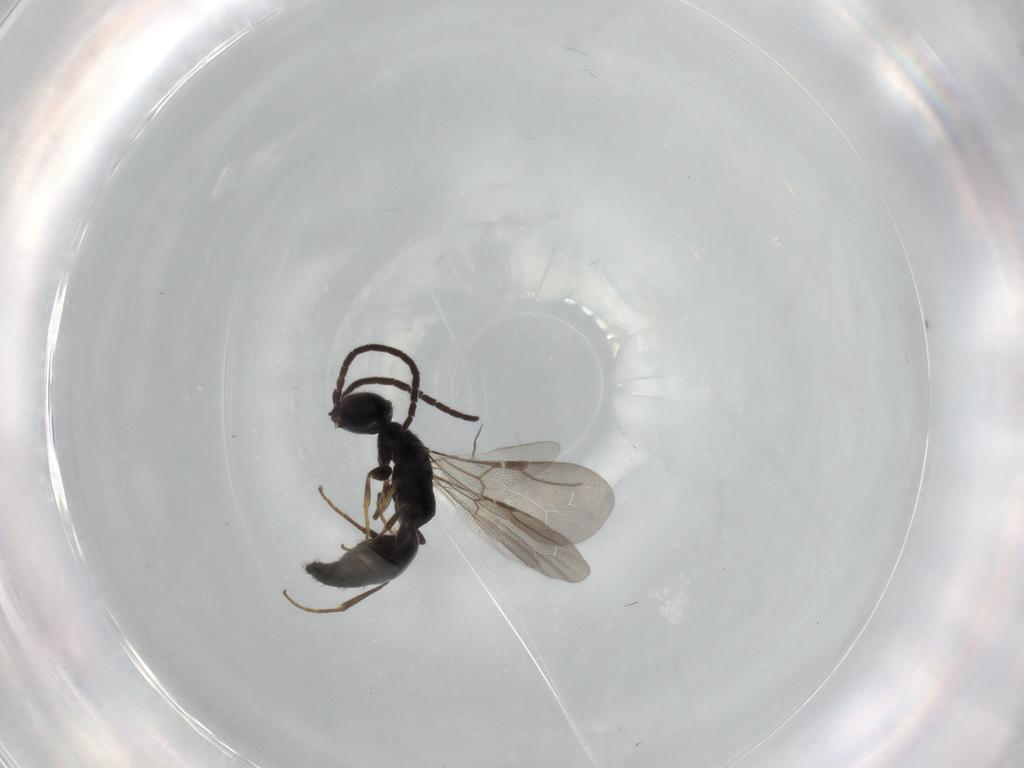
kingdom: Animalia
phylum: Arthropoda
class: Insecta
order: Hymenoptera
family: Bethylidae
